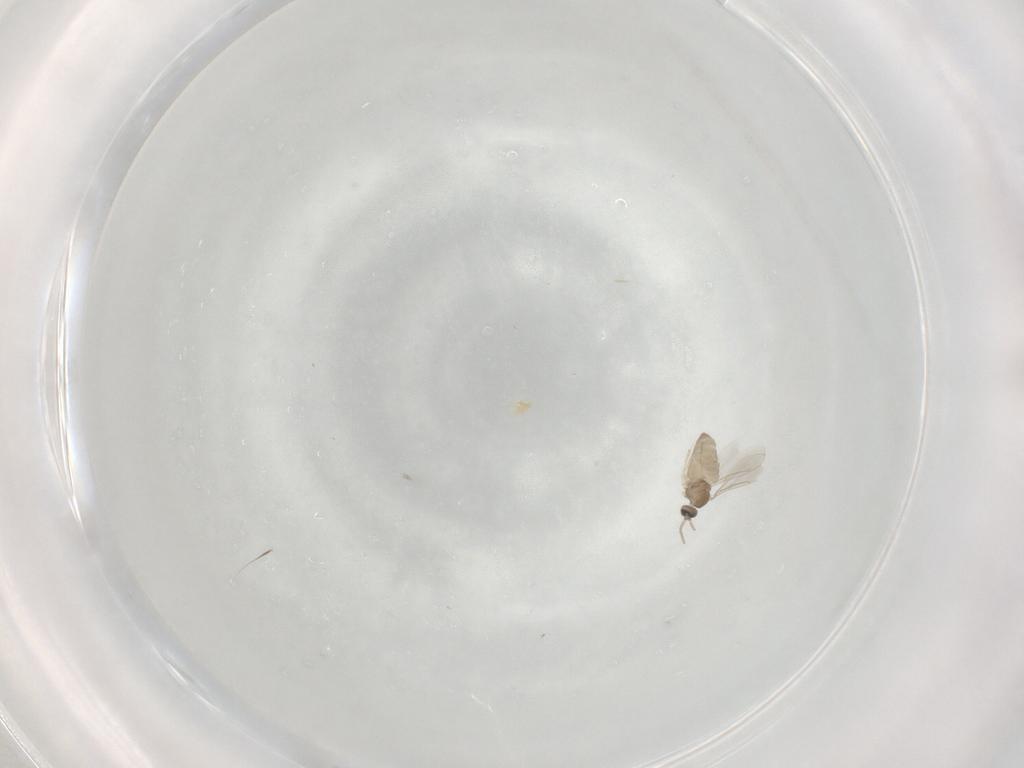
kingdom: Animalia
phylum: Arthropoda
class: Insecta
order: Diptera
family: Cecidomyiidae
